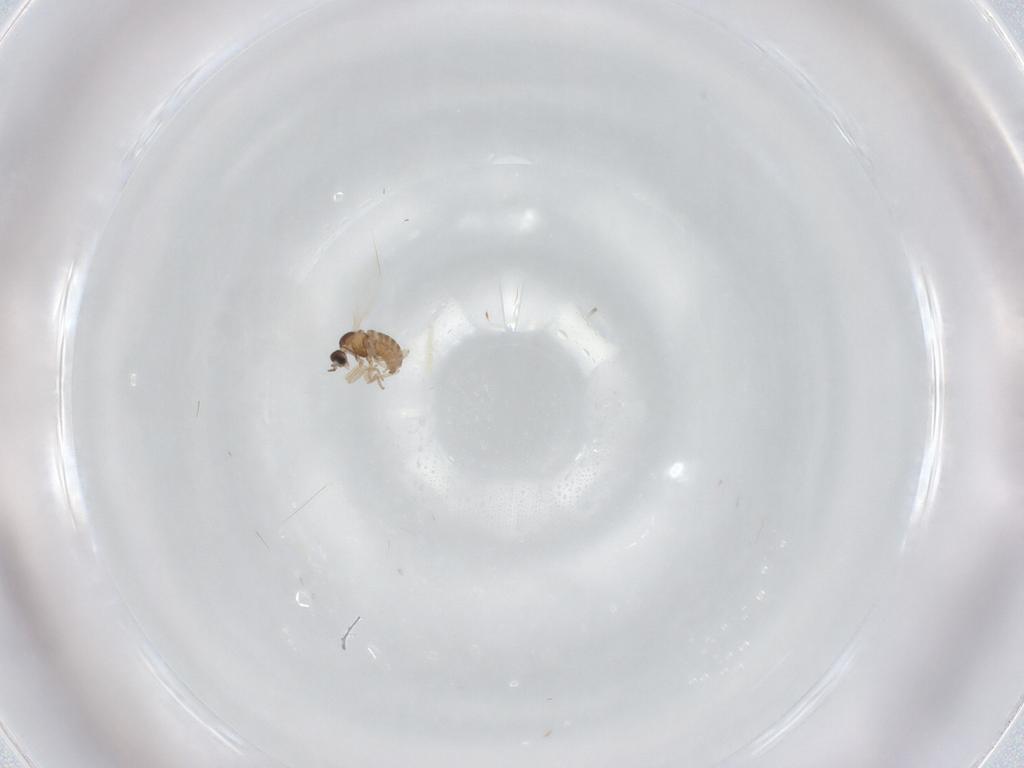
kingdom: Animalia
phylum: Arthropoda
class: Insecta
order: Diptera
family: Cecidomyiidae
